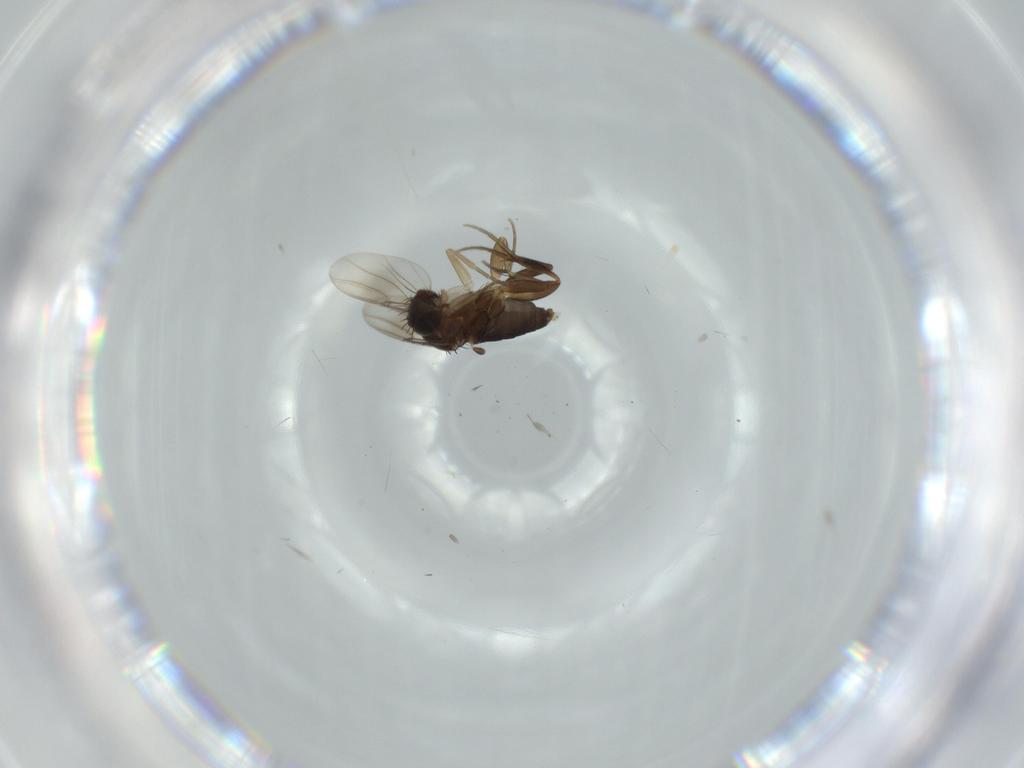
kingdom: Animalia
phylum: Arthropoda
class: Insecta
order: Diptera
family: Phoridae
